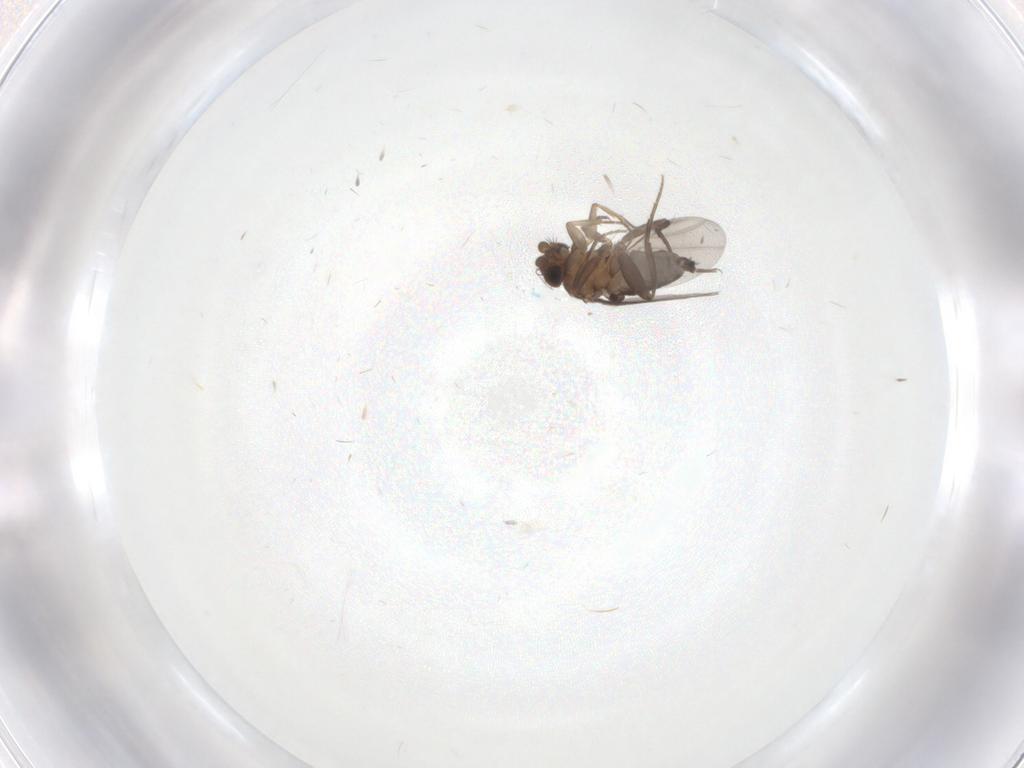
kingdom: Animalia
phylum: Arthropoda
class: Insecta
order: Diptera
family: Phoridae
